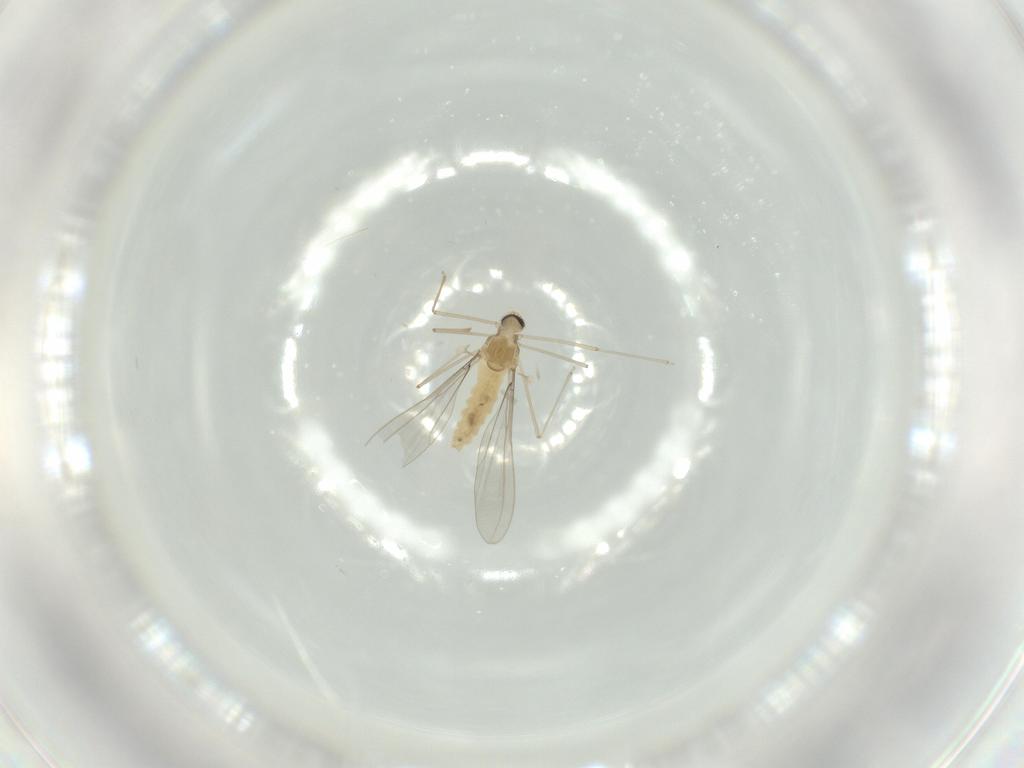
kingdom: Animalia
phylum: Arthropoda
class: Insecta
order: Diptera
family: Cecidomyiidae
